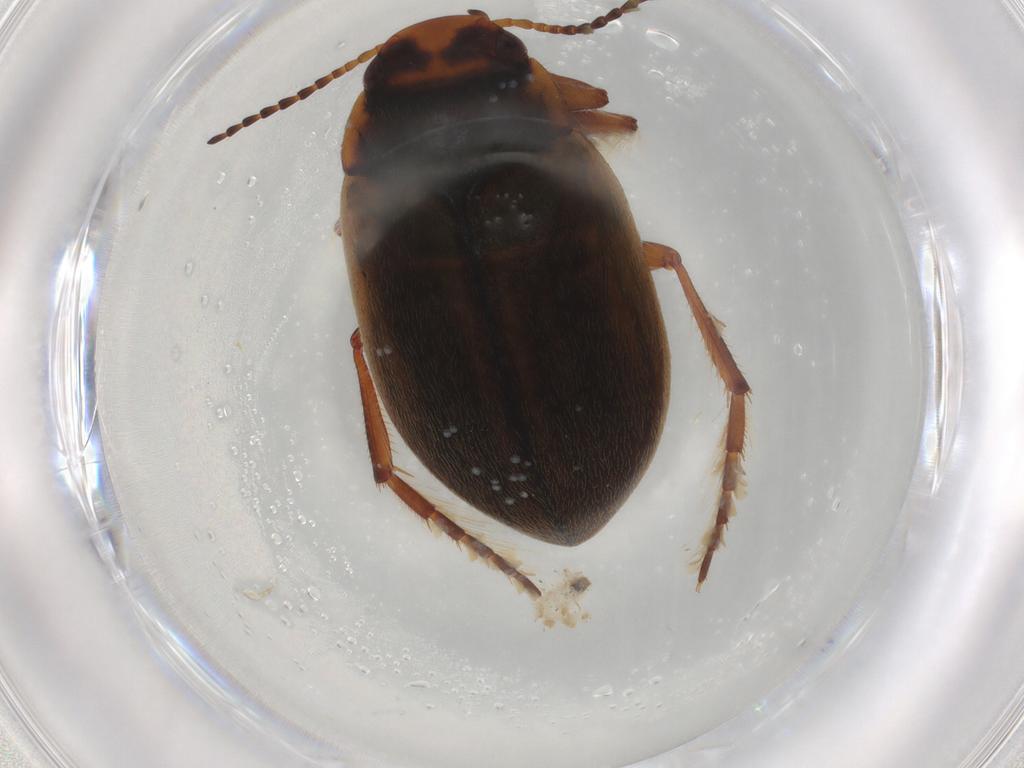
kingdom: Animalia
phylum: Arthropoda
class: Insecta
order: Coleoptera
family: Dytiscidae
